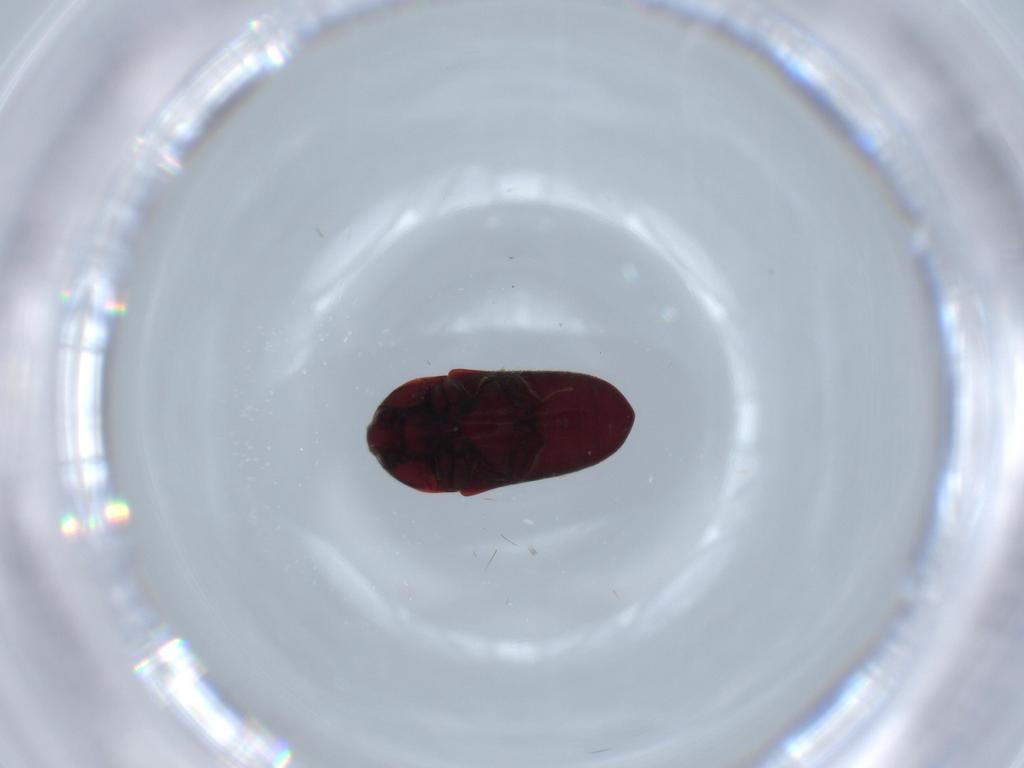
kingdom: Animalia
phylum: Arthropoda
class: Insecta
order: Coleoptera
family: Throscidae
